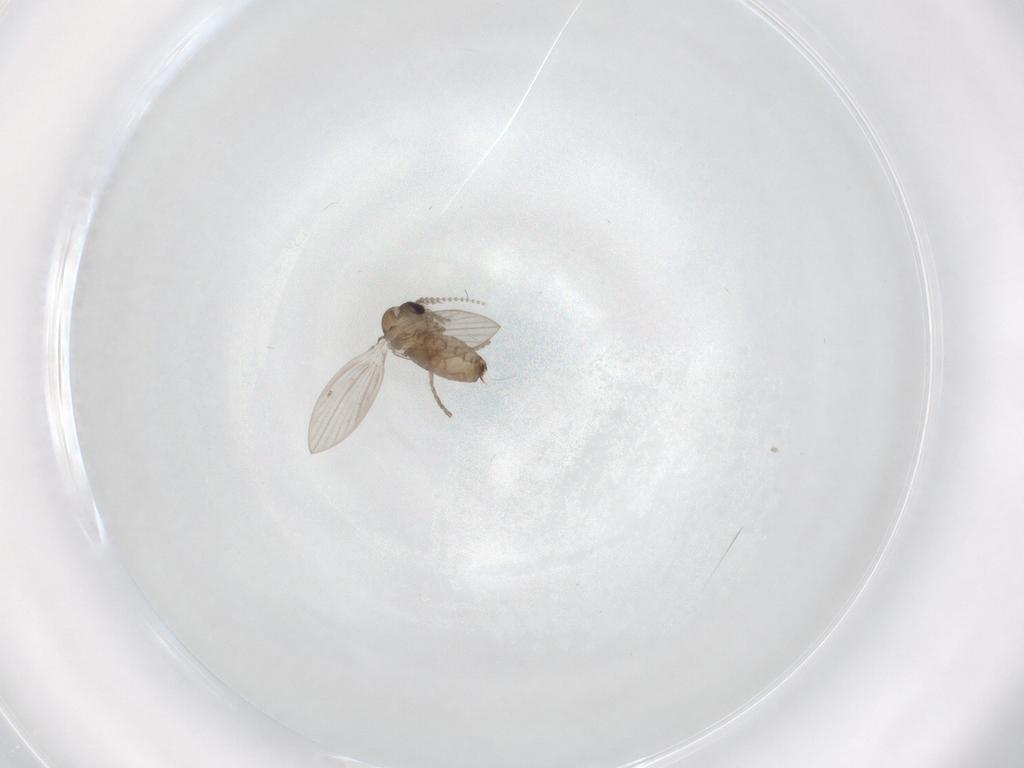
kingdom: Animalia
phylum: Arthropoda
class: Insecta
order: Diptera
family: Psychodidae
